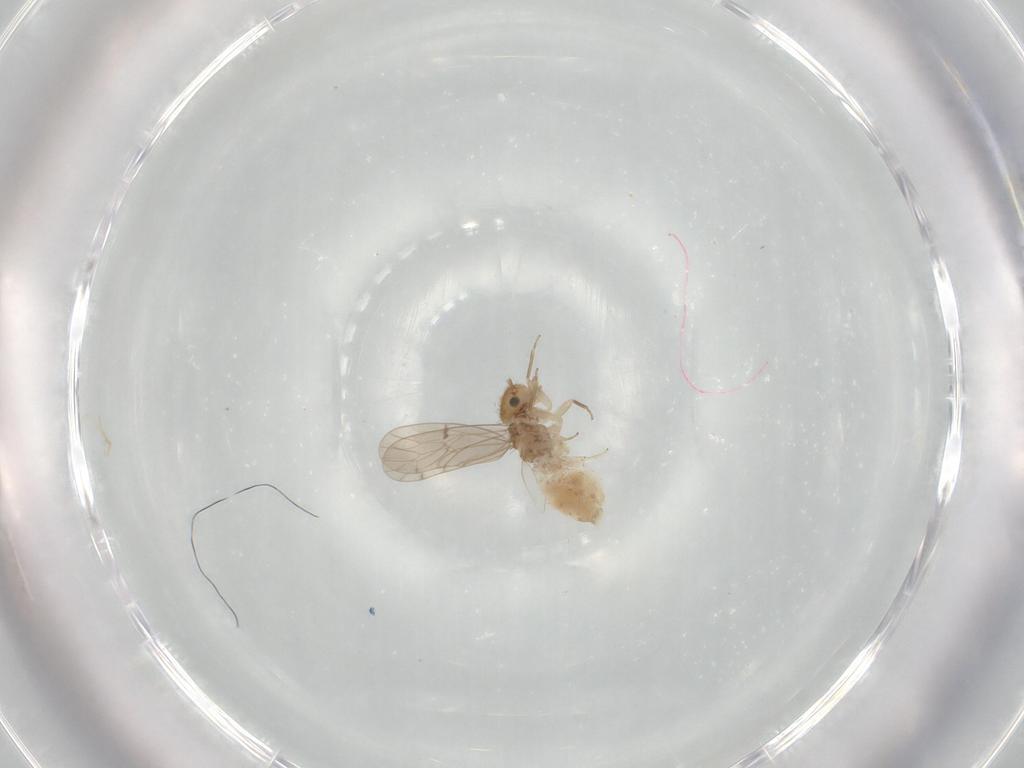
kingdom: Animalia
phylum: Arthropoda
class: Insecta
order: Psocodea
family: Ectopsocidae
